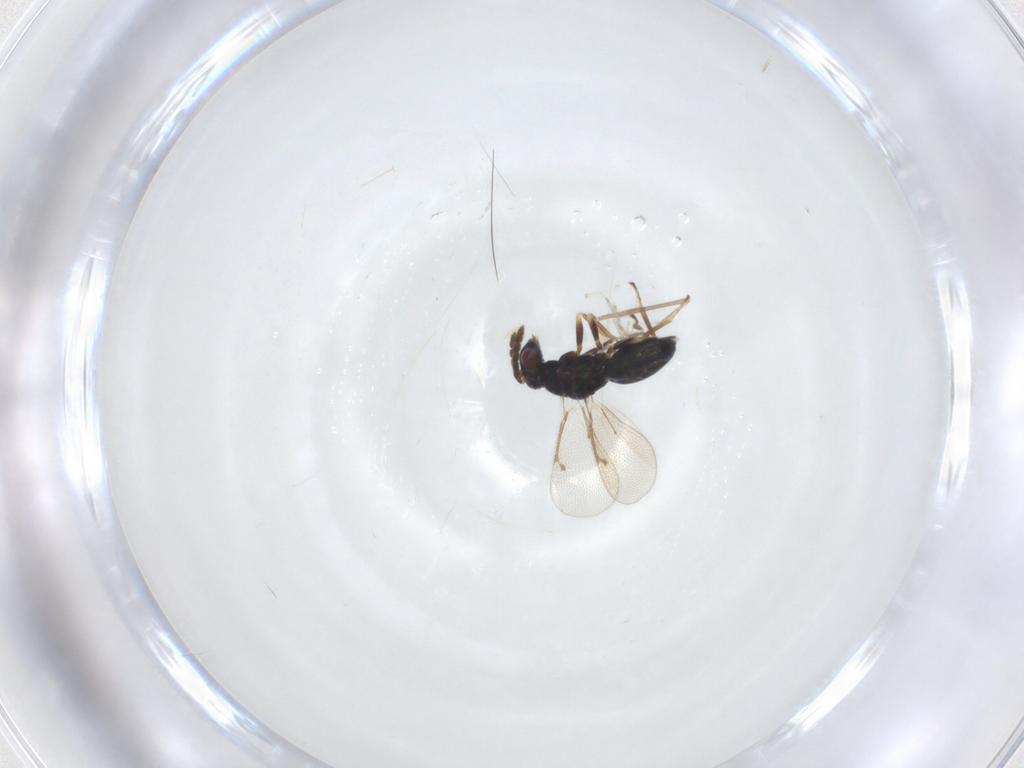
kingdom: Animalia
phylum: Arthropoda
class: Insecta
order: Hymenoptera
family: Eulophidae
